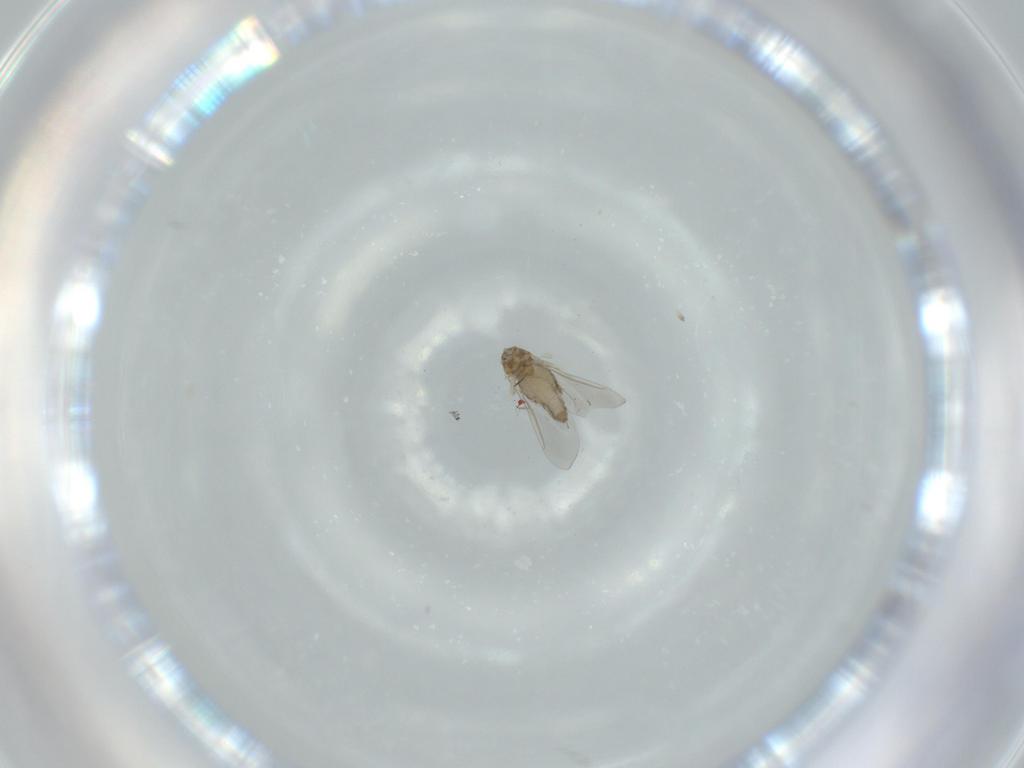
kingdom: Animalia
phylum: Arthropoda
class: Insecta
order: Diptera
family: Cecidomyiidae
